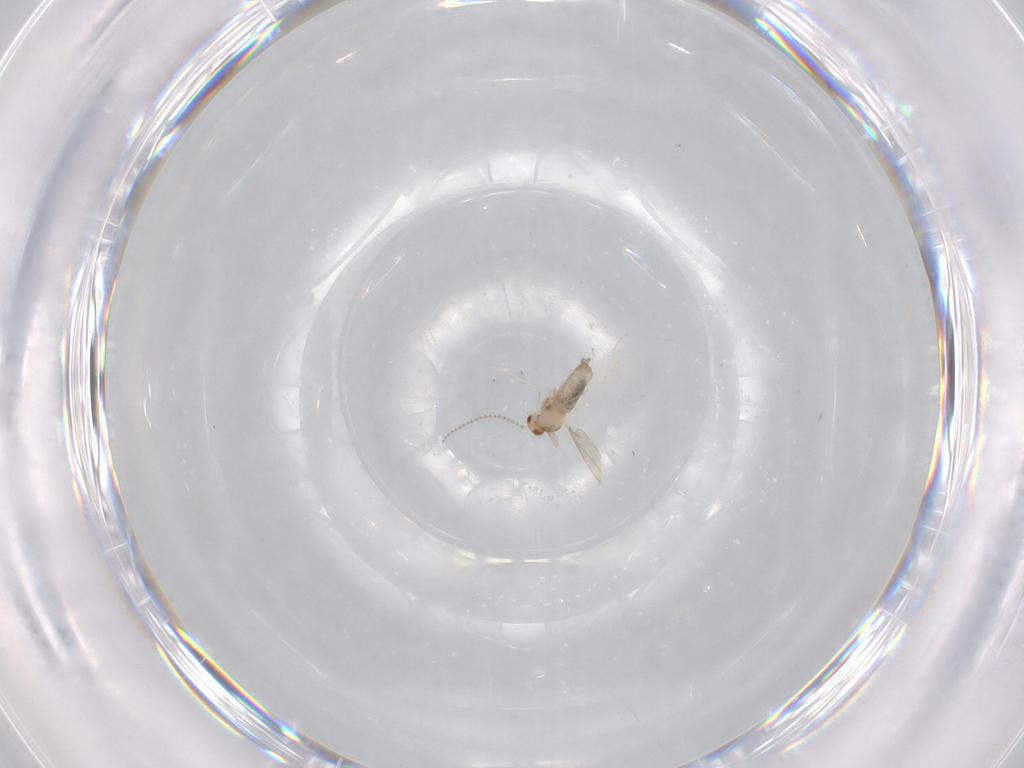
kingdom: Animalia
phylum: Arthropoda
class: Insecta
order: Diptera
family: Cecidomyiidae
